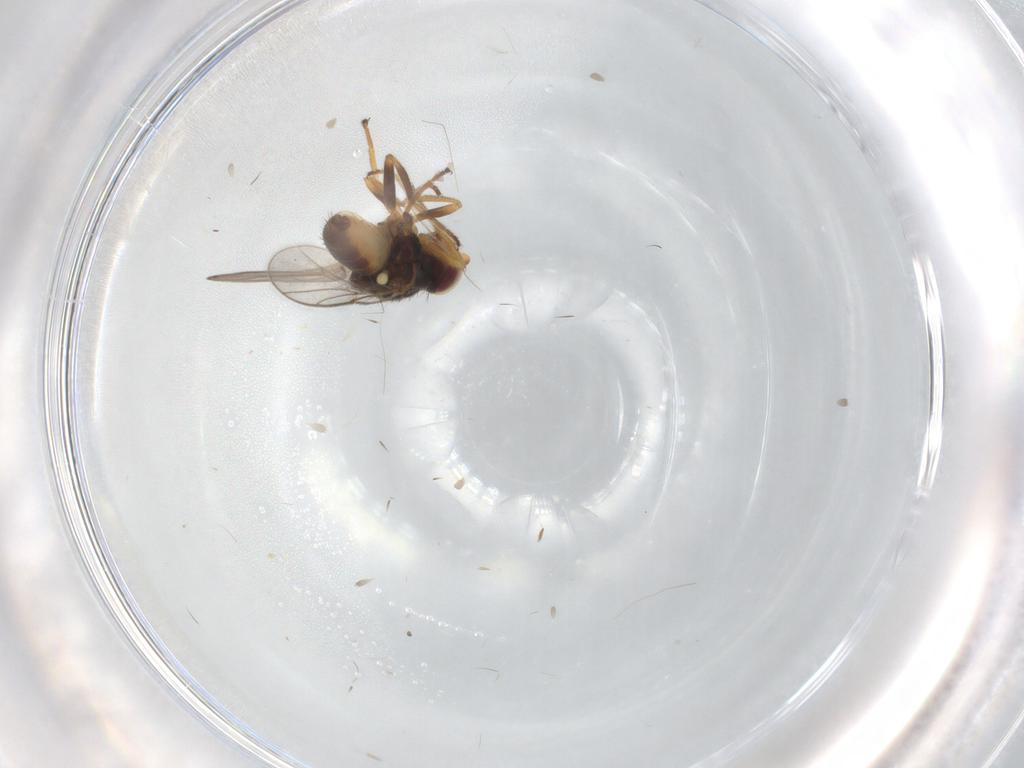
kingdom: Animalia
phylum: Arthropoda
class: Insecta
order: Diptera
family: Chloropidae
